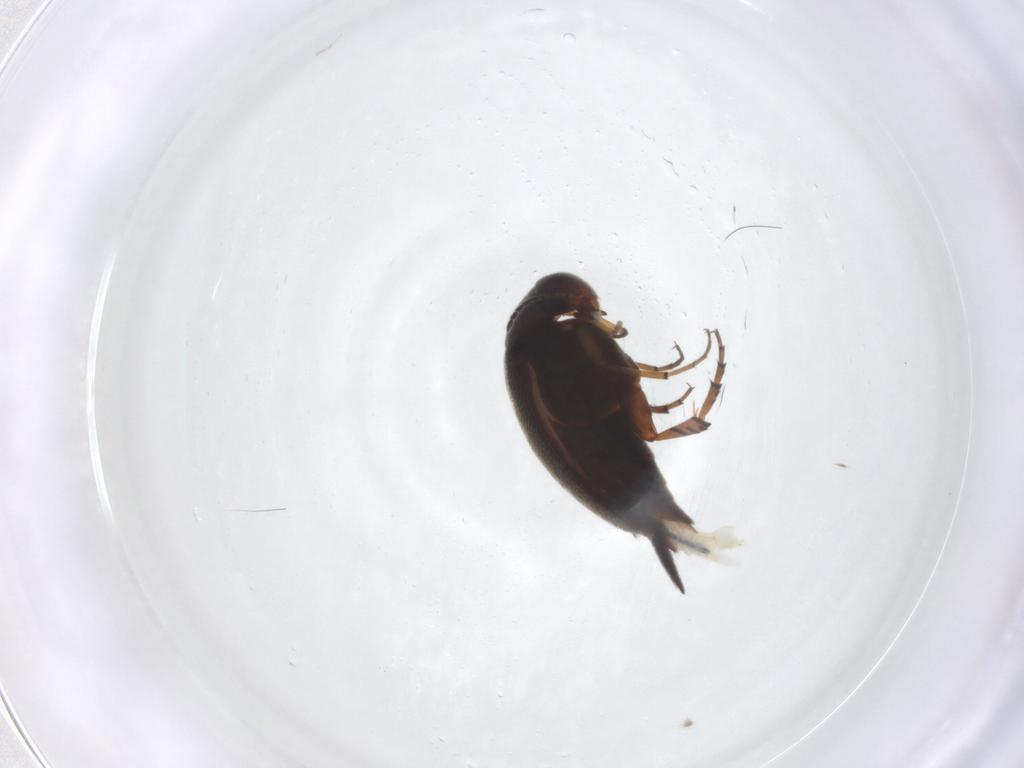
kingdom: Animalia
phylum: Arthropoda
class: Insecta
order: Coleoptera
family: Mordellidae
